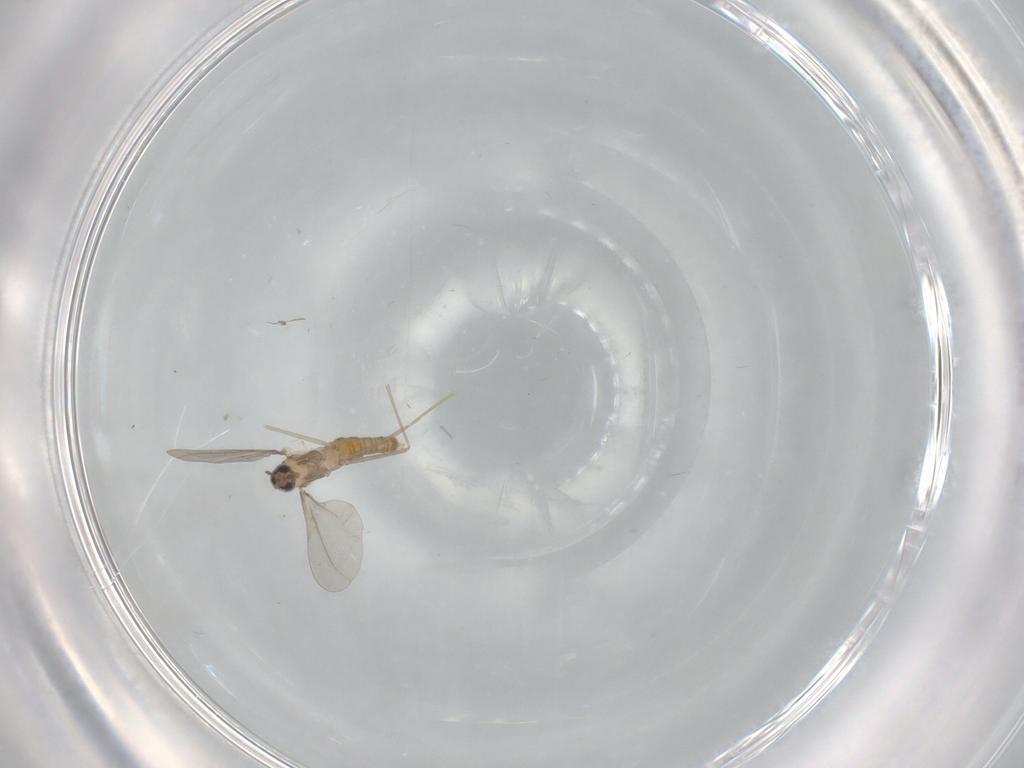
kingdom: Animalia
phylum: Arthropoda
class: Insecta
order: Diptera
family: Cecidomyiidae
